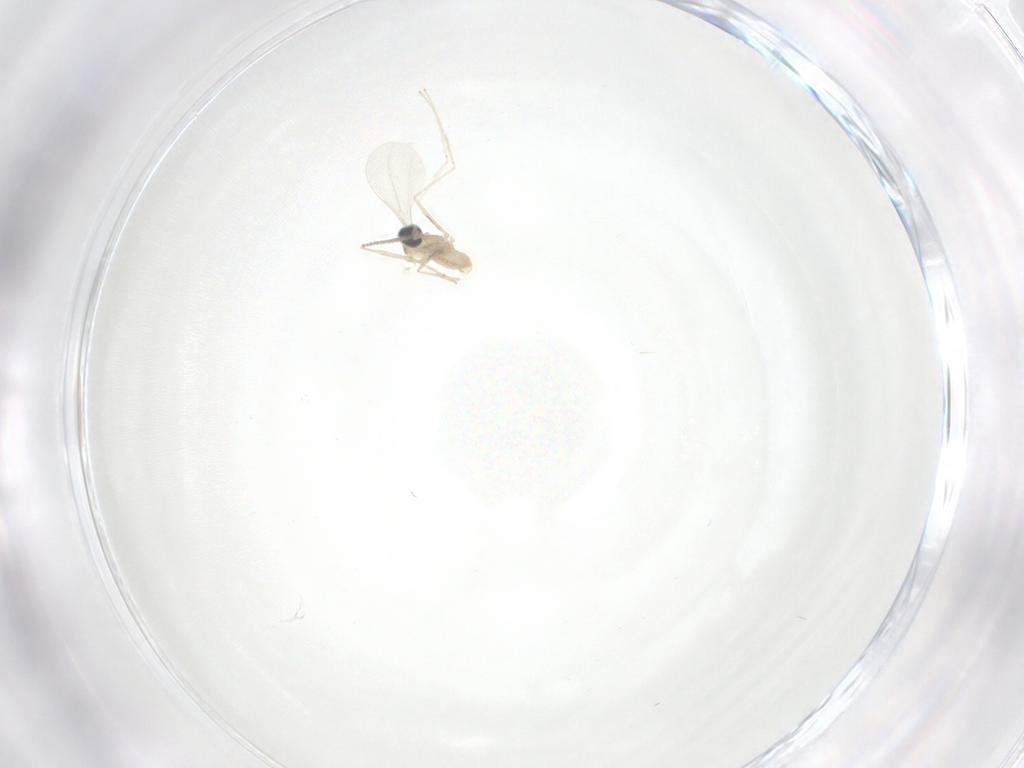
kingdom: Animalia
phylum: Arthropoda
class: Insecta
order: Diptera
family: Cecidomyiidae
